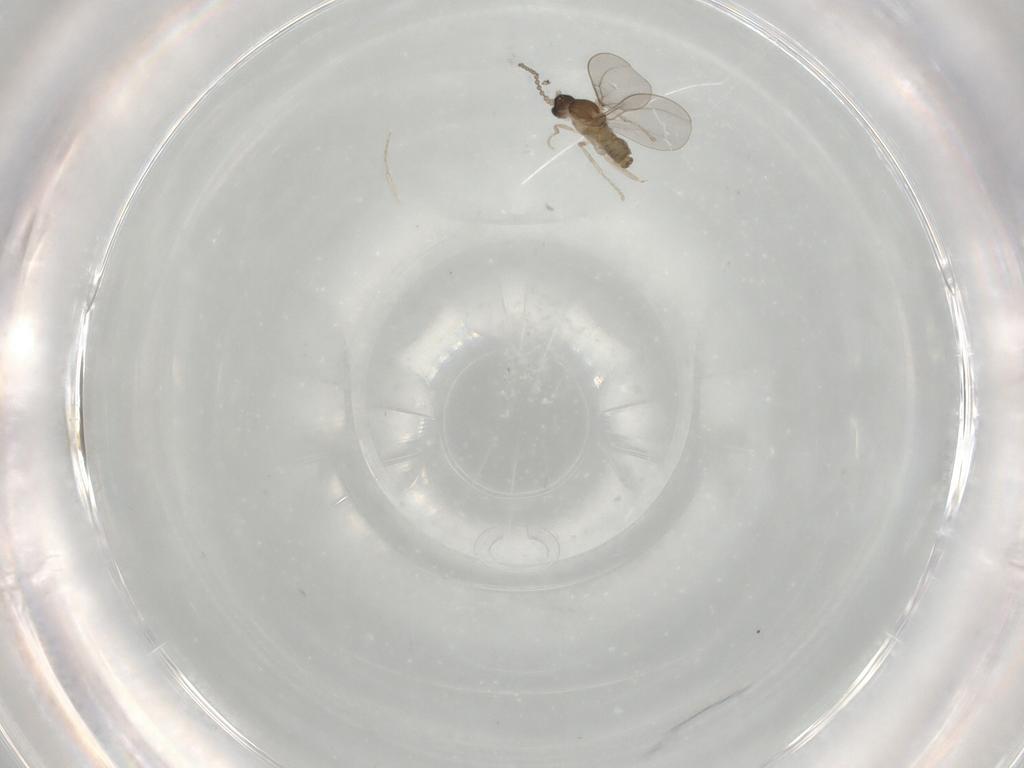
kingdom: Animalia
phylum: Arthropoda
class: Insecta
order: Diptera
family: Cecidomyiidae
